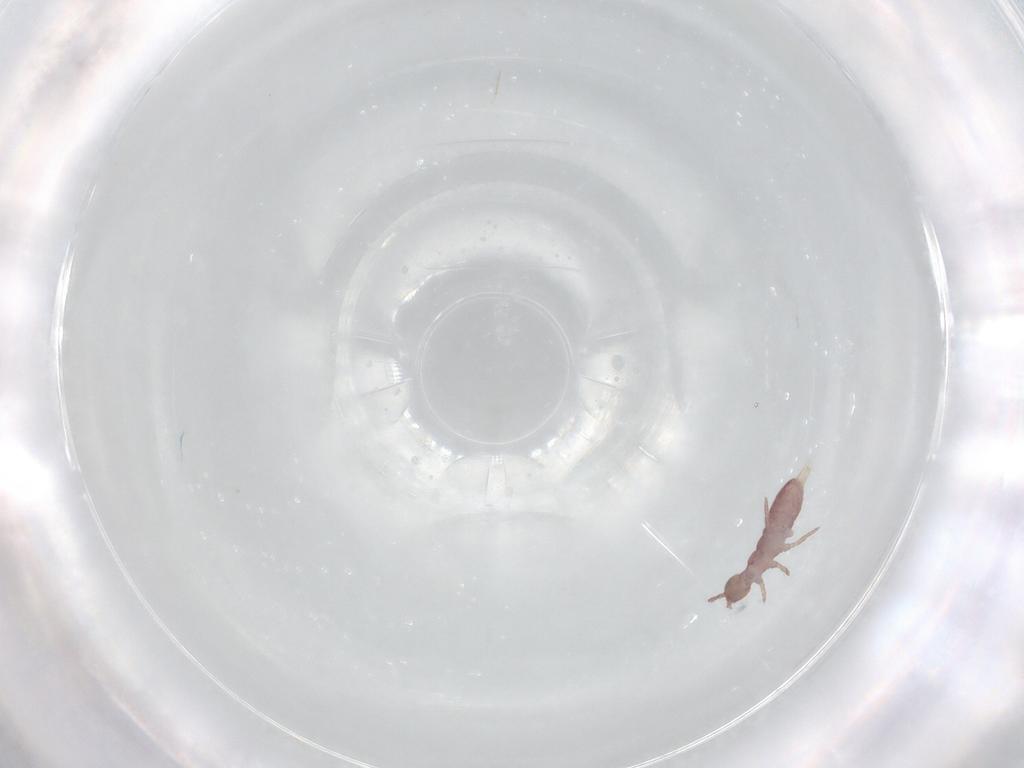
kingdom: Animalia
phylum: Arthropoda
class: Collembola
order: Entomobryomorpha
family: Isotomidae
